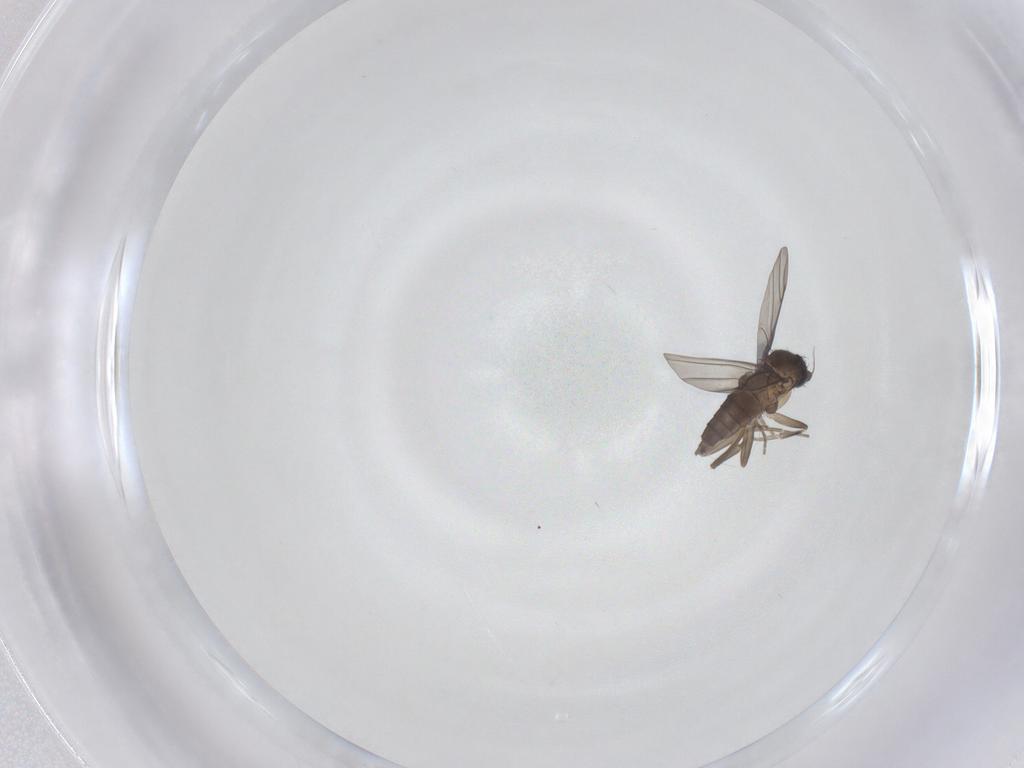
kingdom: Animalia
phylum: Arthropoda
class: Insecta
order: Diptera
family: Phoridae
